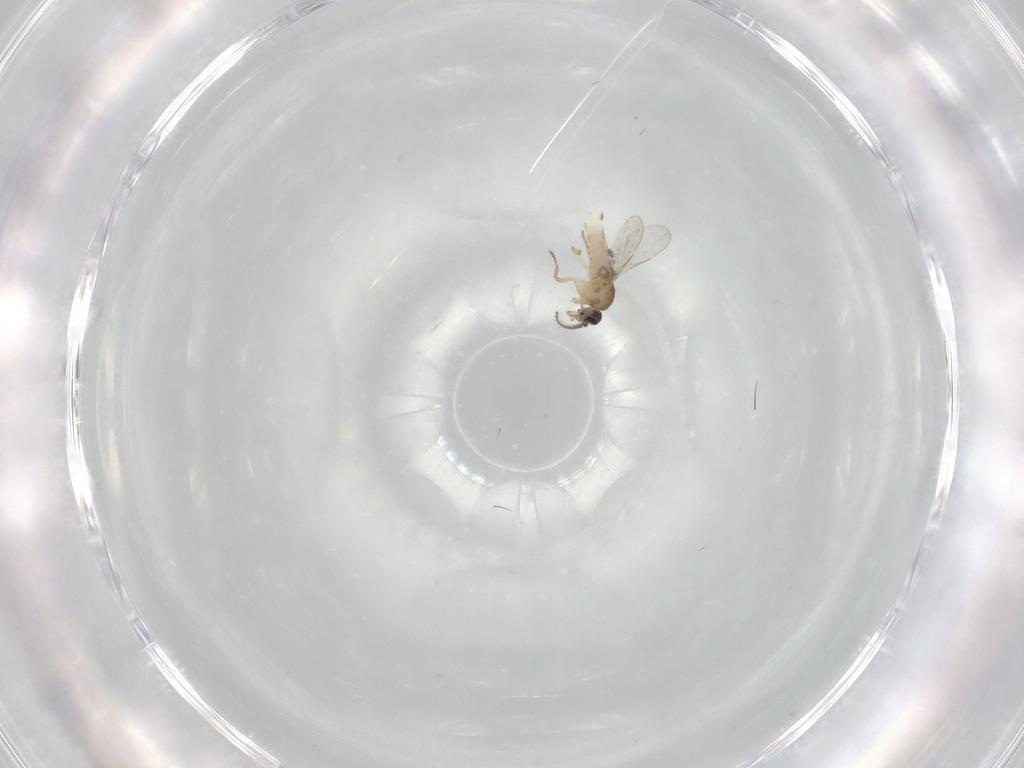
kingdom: Animalia
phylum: Arthropoda
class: Insecta
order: Diptera
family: Ceratopogonidae
